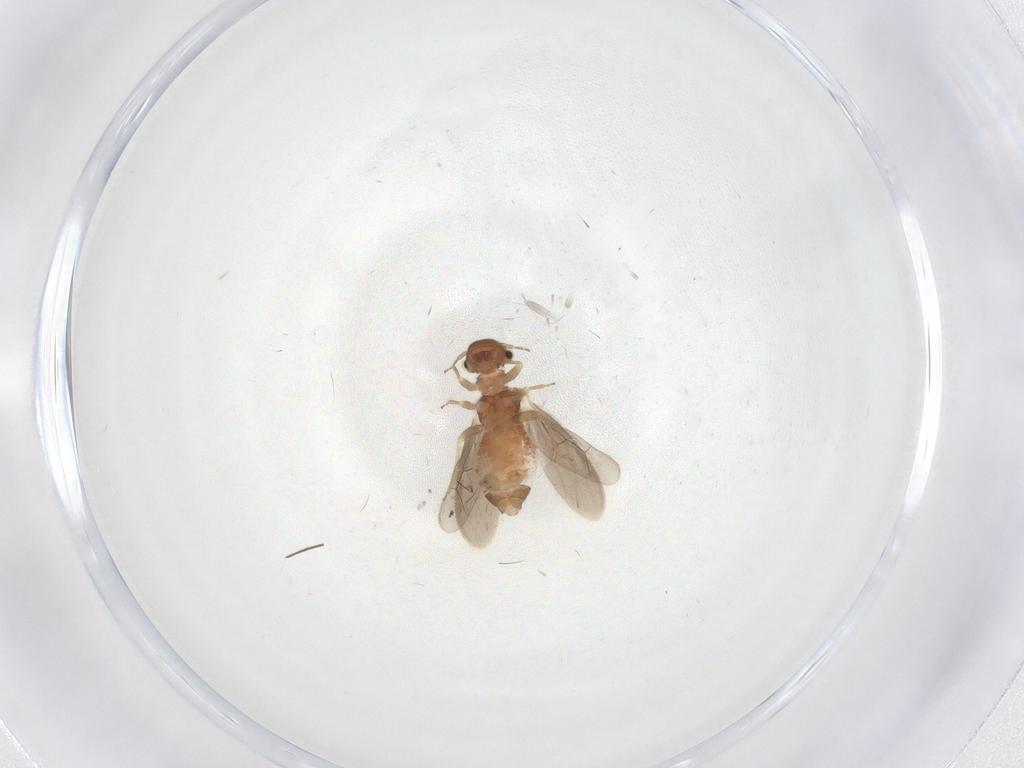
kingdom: Animalia
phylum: Arthropoda
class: Insecta
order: Psocodea
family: Archipsocidae
